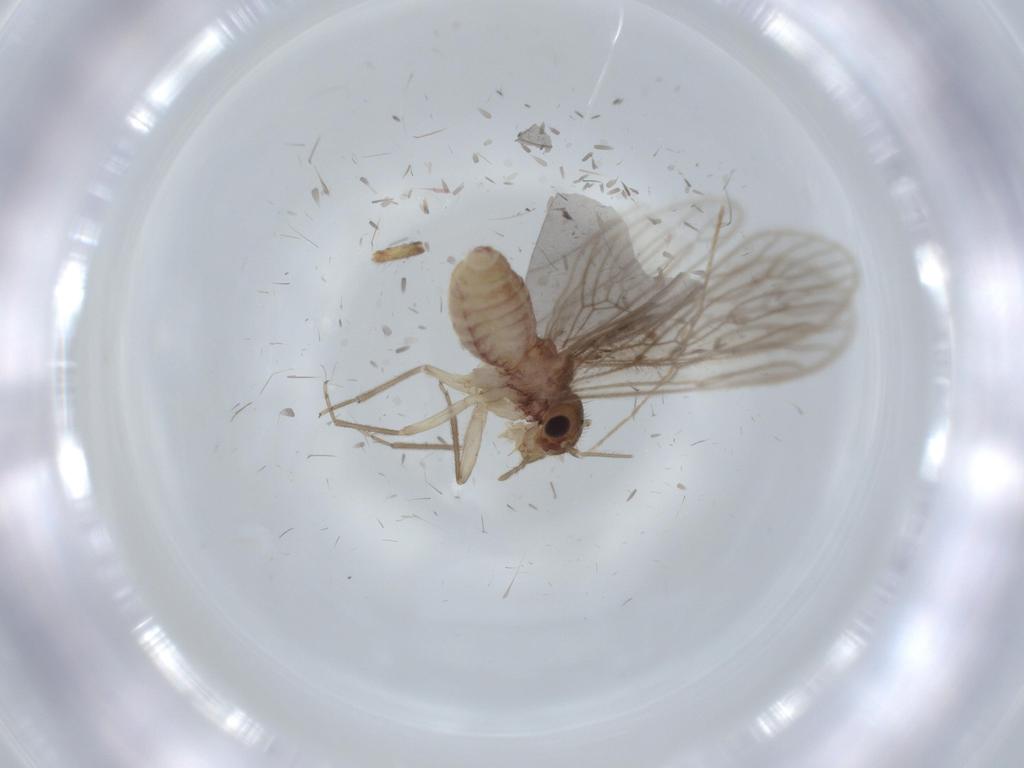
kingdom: Animalia
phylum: Arthropoda
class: Insecta
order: Psocodea
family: Cladiopsocidae
